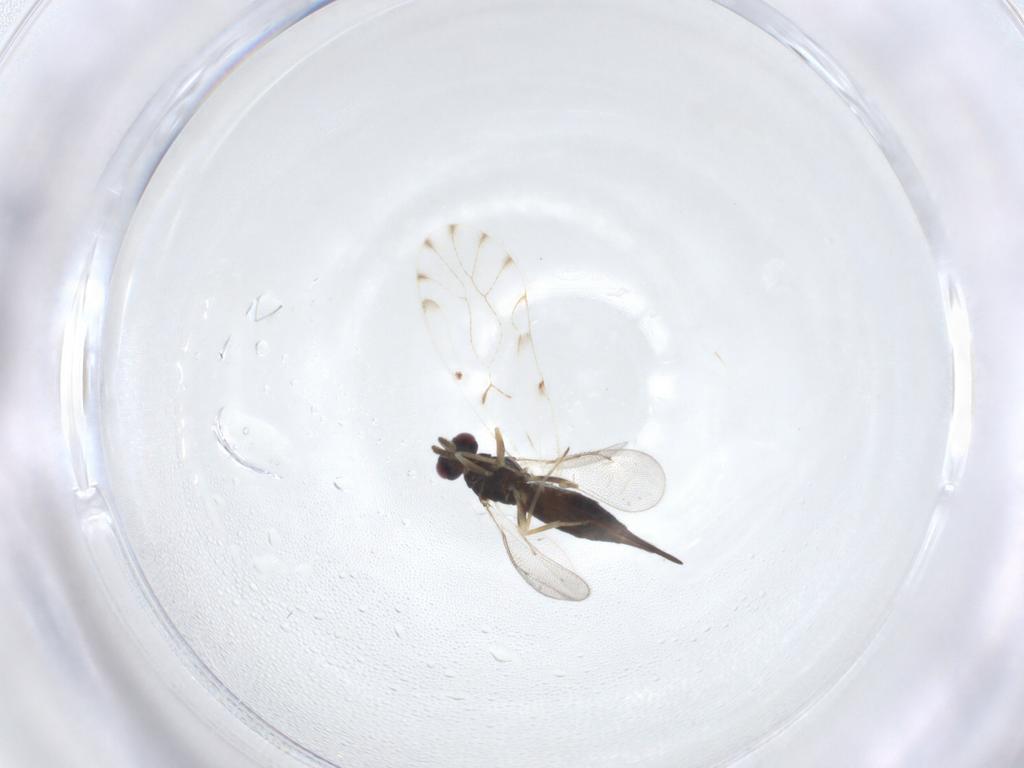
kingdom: Animalia
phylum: Arthropoda
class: Insecta
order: Hymenoptera
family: Eulophidae
